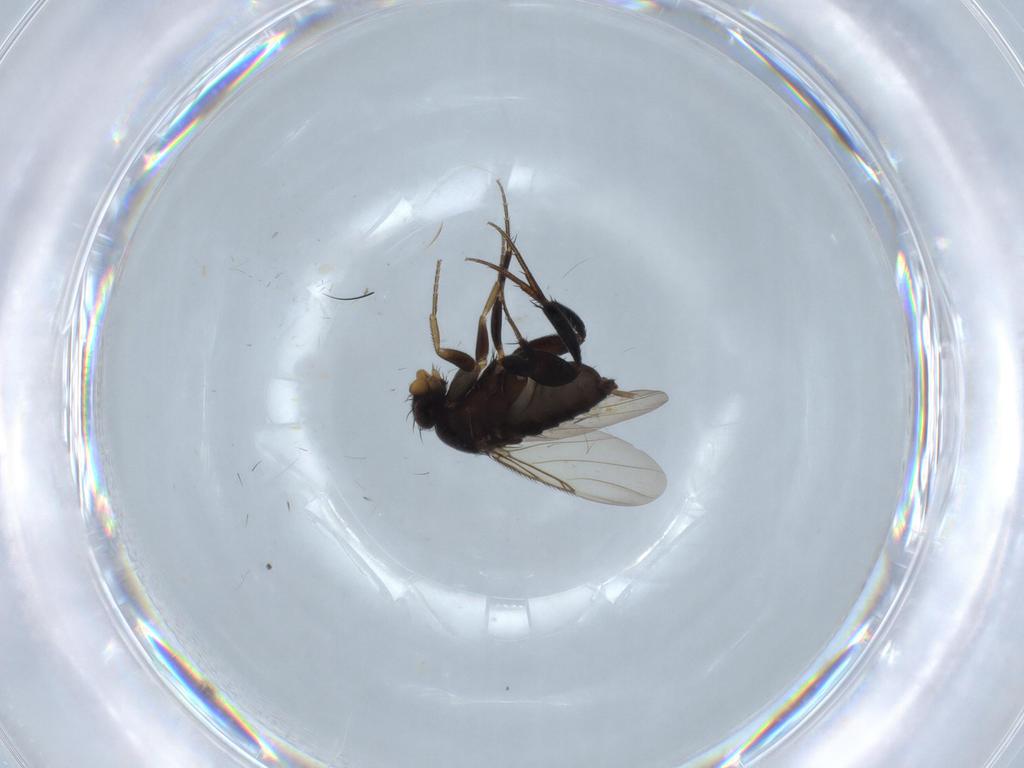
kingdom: Animalia
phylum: Arthropoda
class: Insecta
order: Diptera
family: Phoridae
